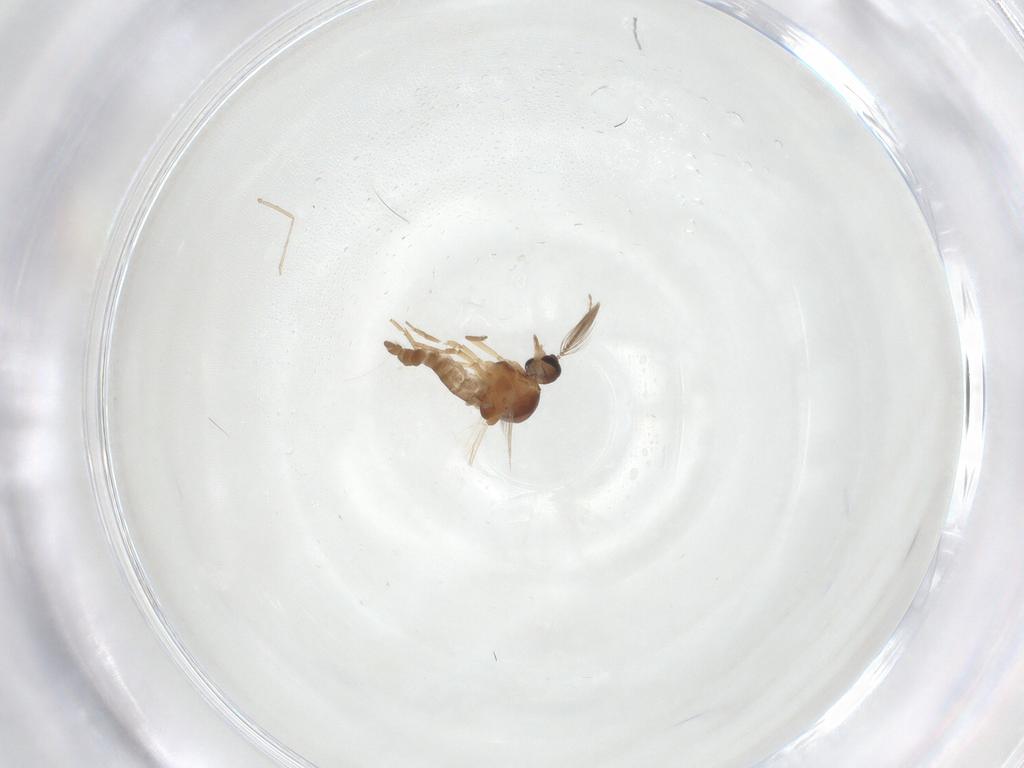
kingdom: Animalia
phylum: Arthropoda
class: Insecta
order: Diptera
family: Ceratopogonidae
